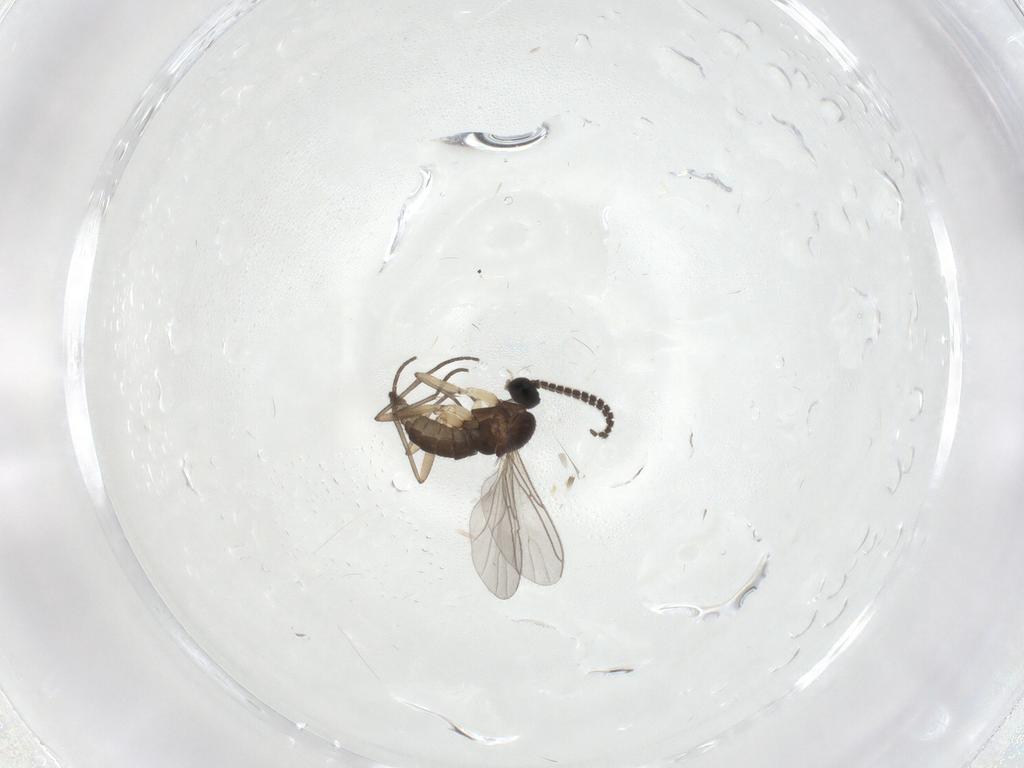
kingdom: Animalia
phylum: Arthropoda
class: Insecta
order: Diptera
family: Sciaridae
